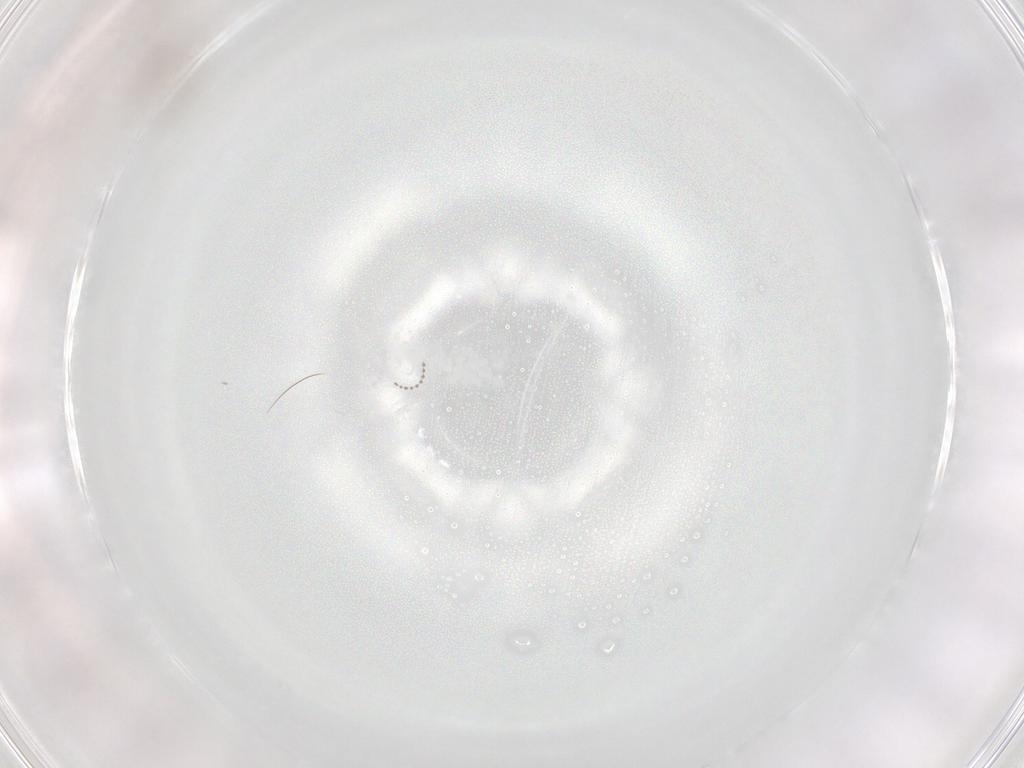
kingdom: Animalia
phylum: Arthropoda
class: Insecta
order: Diptera
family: Cecidomyiidae
